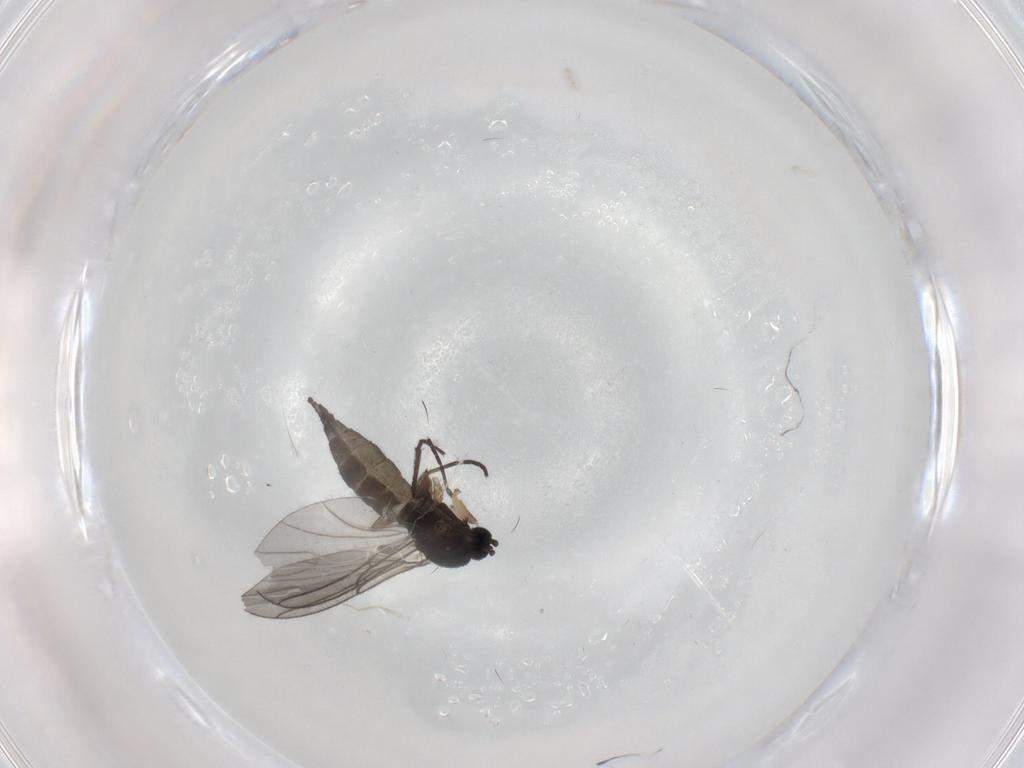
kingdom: Animalia
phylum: Arthropoda
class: Insecta
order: Diptera
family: Sciaridae
